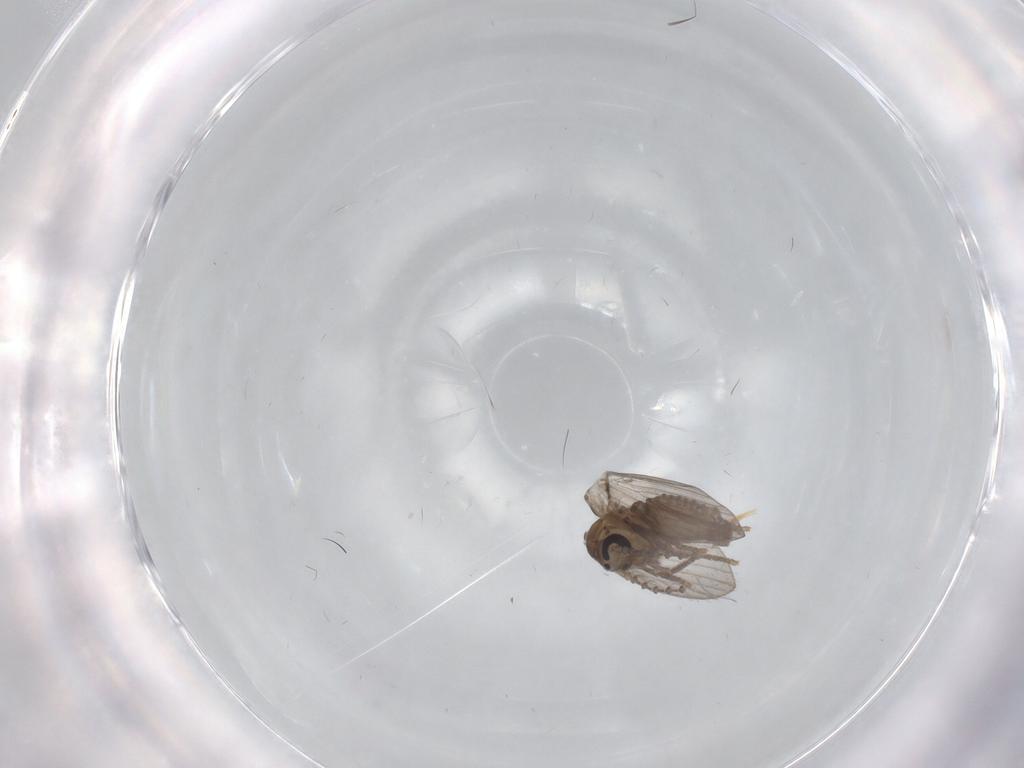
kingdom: Animalia
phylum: Arthropoda
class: Insecta
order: Diptera
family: Psychodidae
